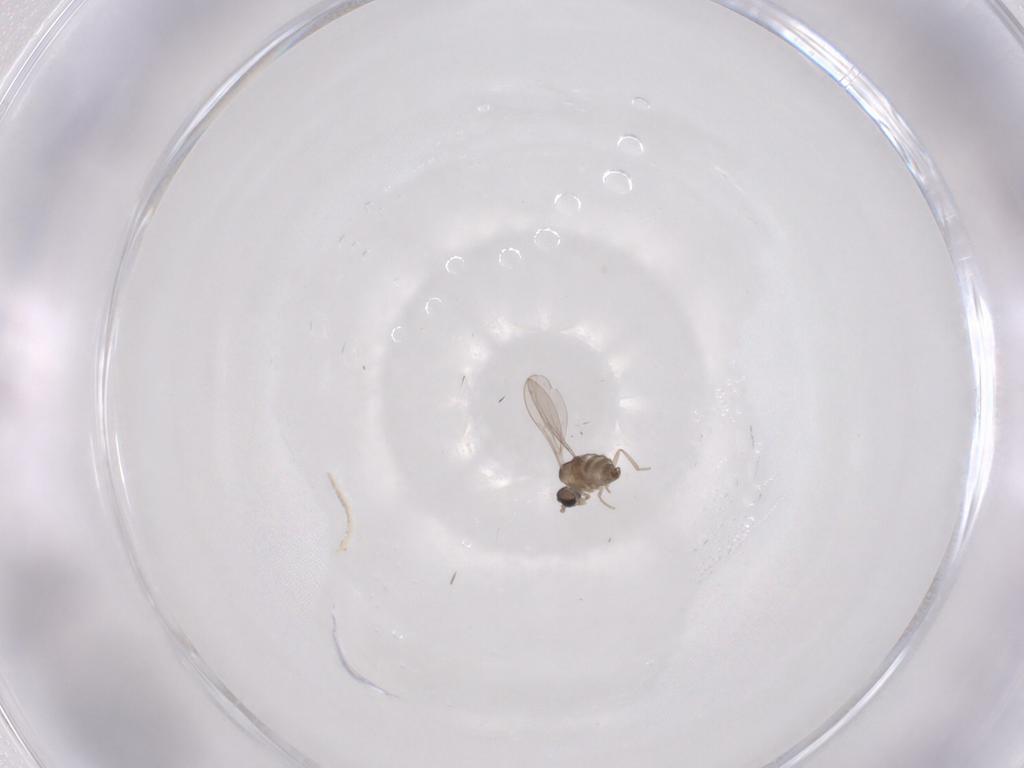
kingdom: Animalia
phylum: Arthropoda
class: Insecta
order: Diptera
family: Cecidomyiidae
